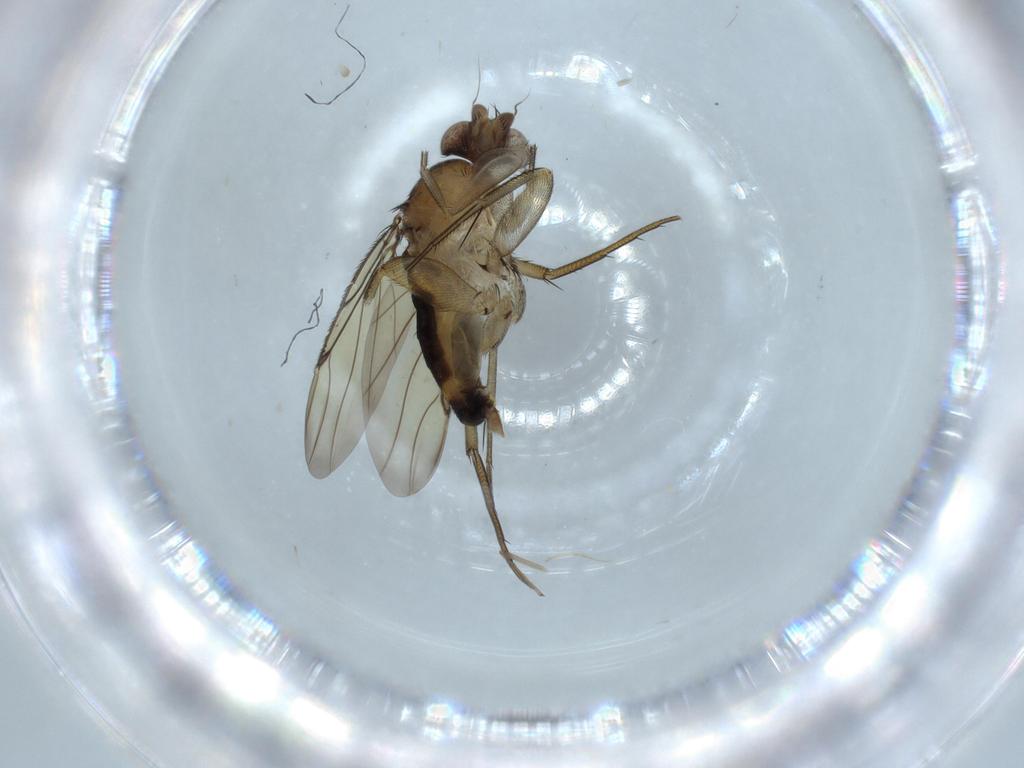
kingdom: Animalia
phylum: Arthropoda
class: Insecta
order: Diptera
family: Chironomidae
